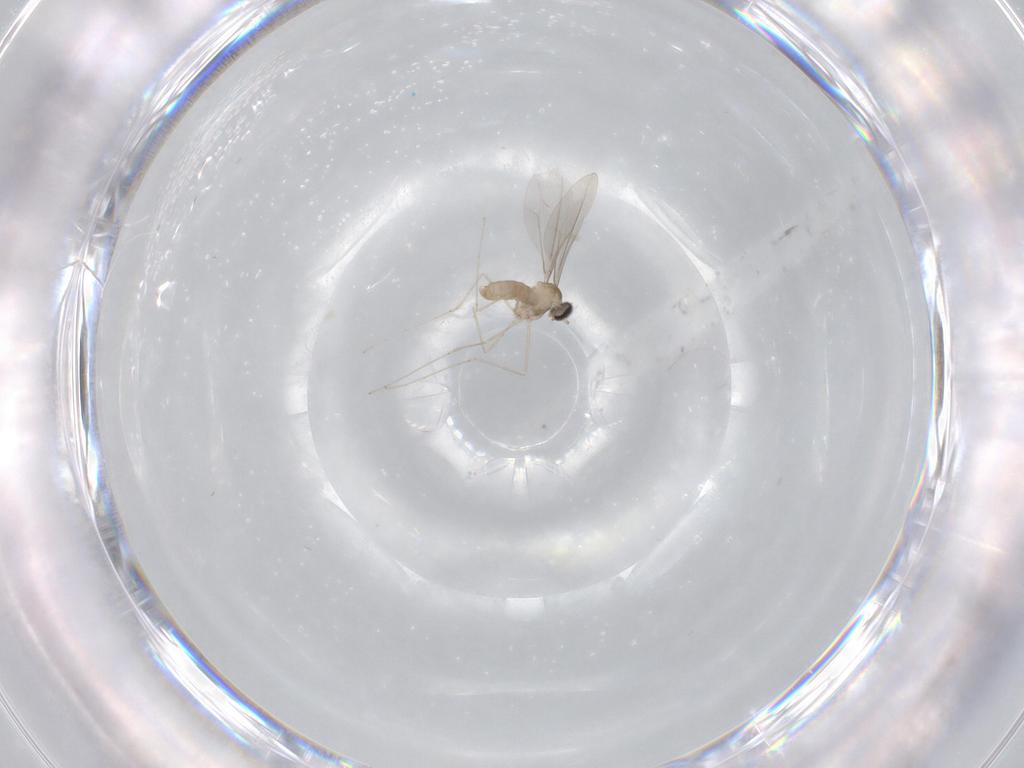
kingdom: Animalia
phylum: Arthropoda
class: Insecta
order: Diptera
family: Cecidomyiidae
